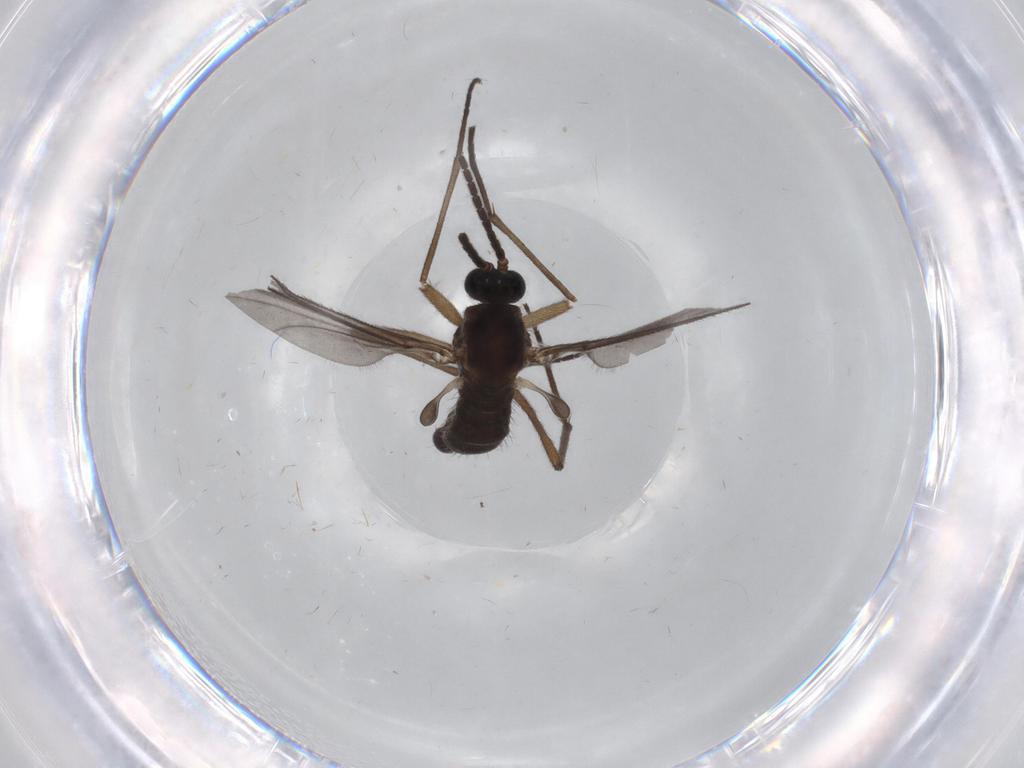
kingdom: Animalia
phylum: Arthropoda
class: Insecta
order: Diptera
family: Sciaridae
